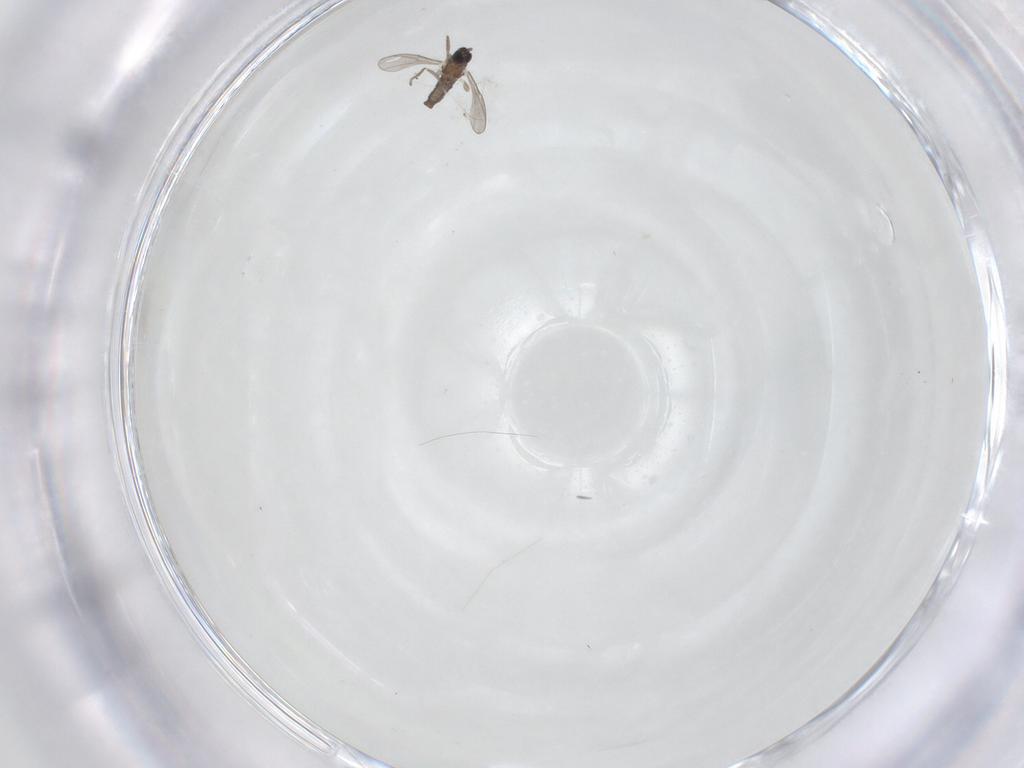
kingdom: Animalia
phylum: Arthropoda
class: Insecta
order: Diptera
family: Cecidomyiidae
